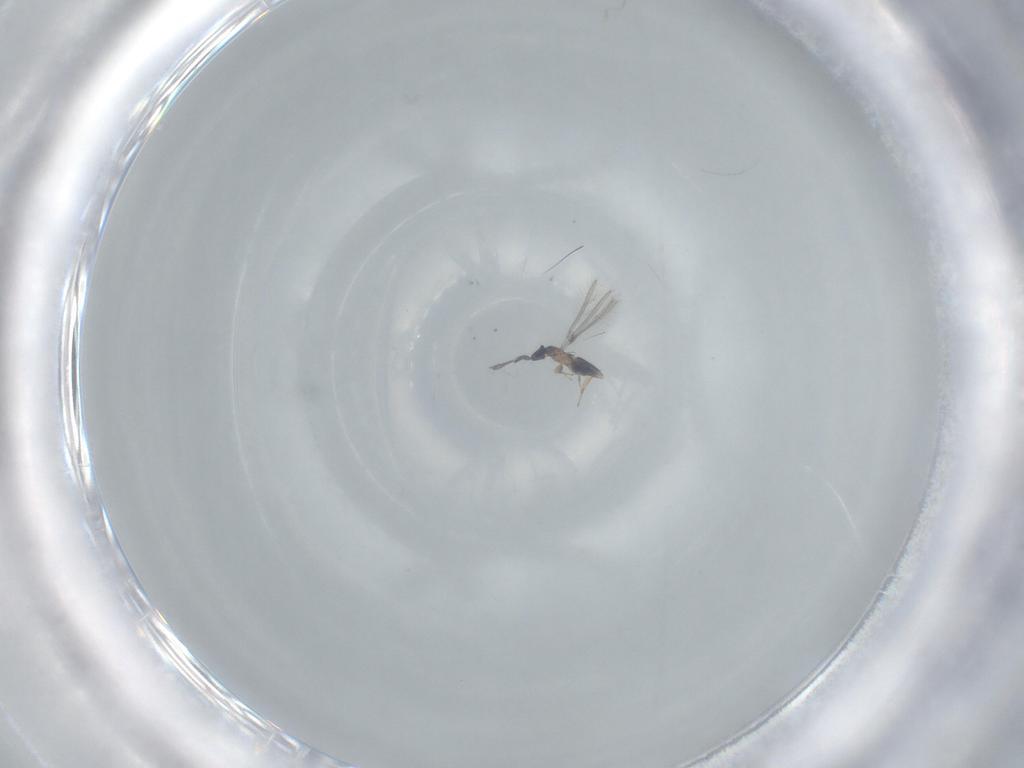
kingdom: Animalia
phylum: Arthropoda
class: Insecta
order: Hymenoptera
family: Mymaridae
